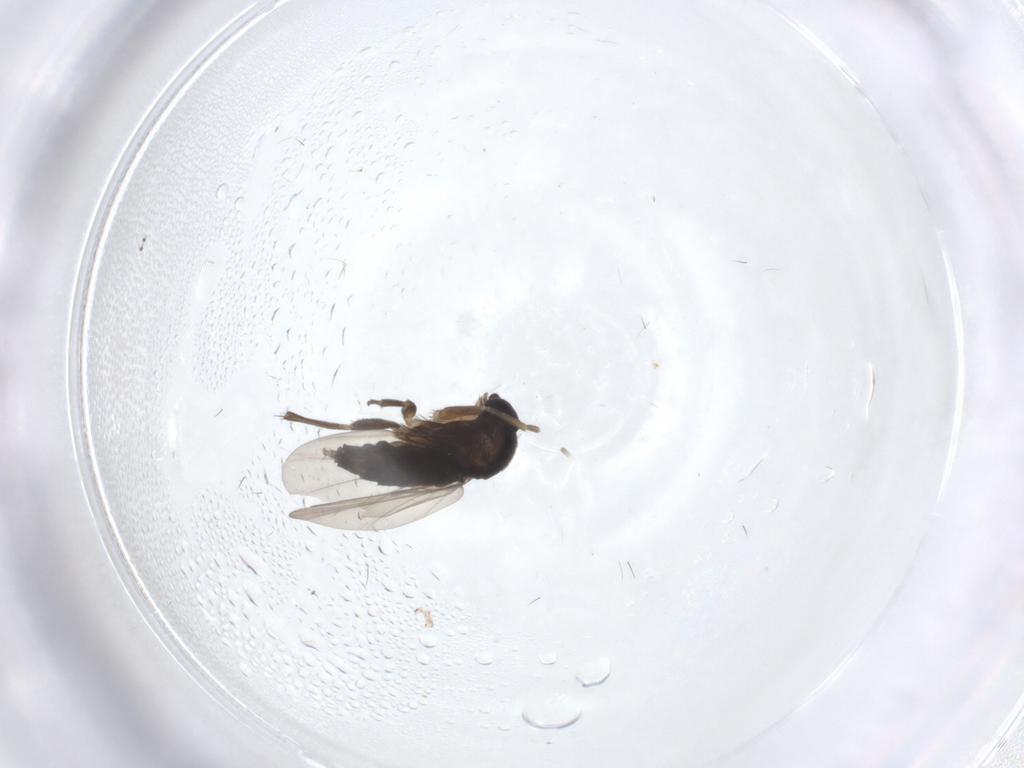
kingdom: Animalia
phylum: Arthropoda
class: Insecta
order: Diptera
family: Phoridae
